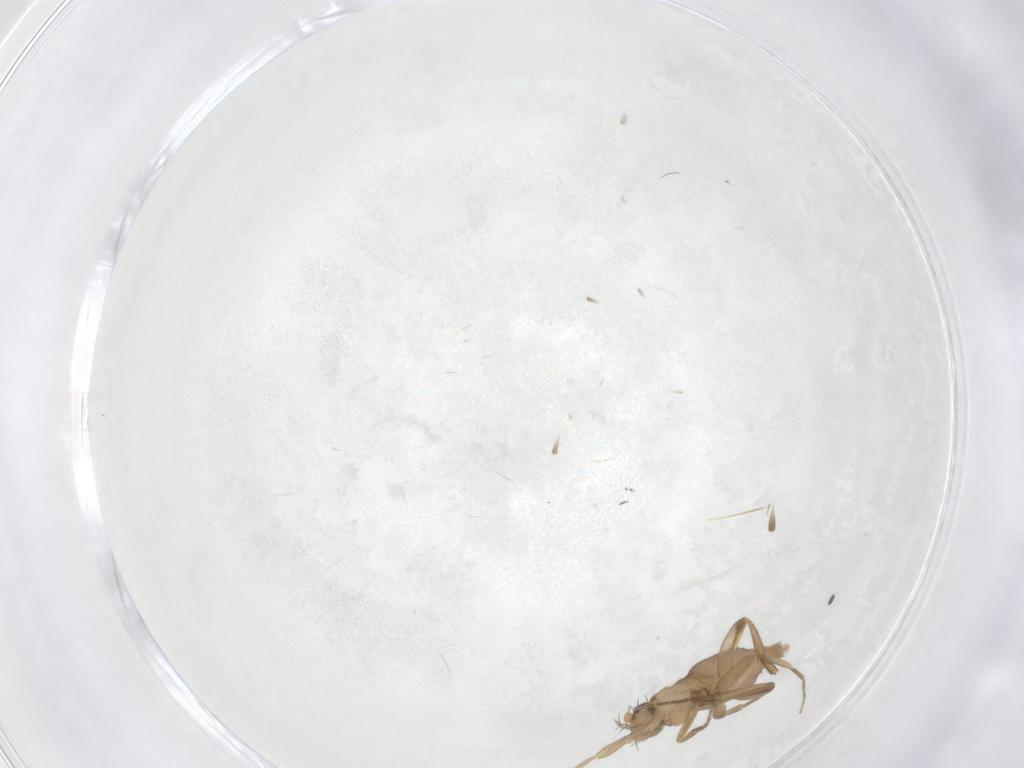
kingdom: Animalia
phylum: Arthropoda
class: Insecta
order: Diptera
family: Phoridae
